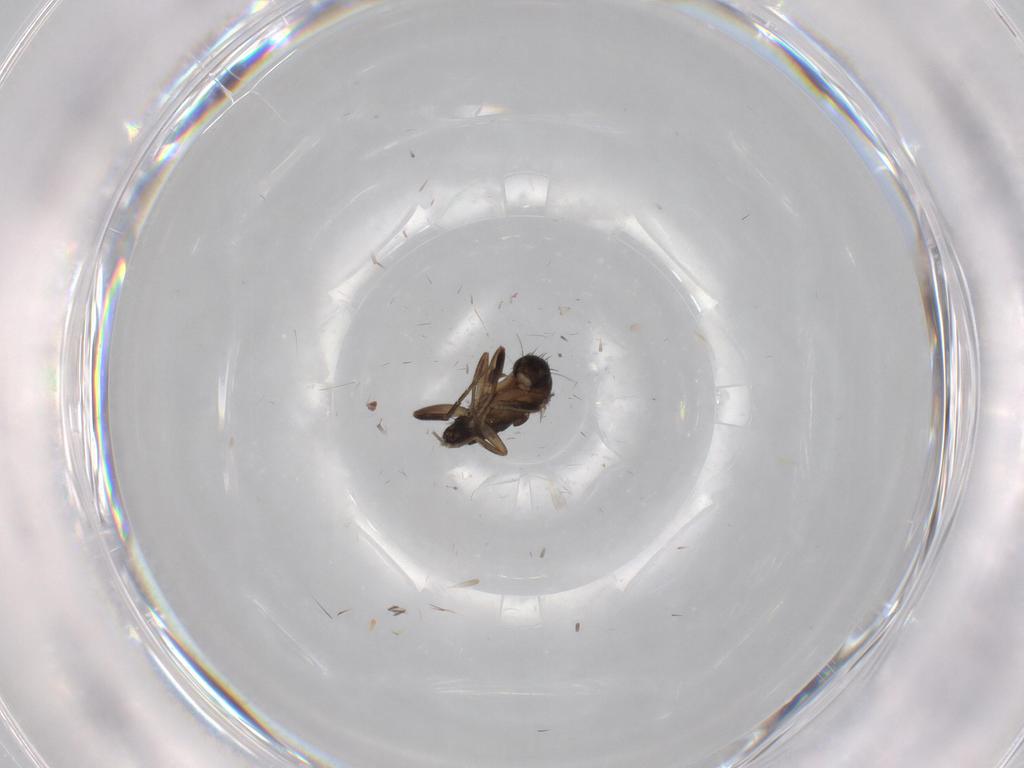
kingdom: Animalia
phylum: Arthropoda
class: Insecta
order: Diptera
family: Phoridae
